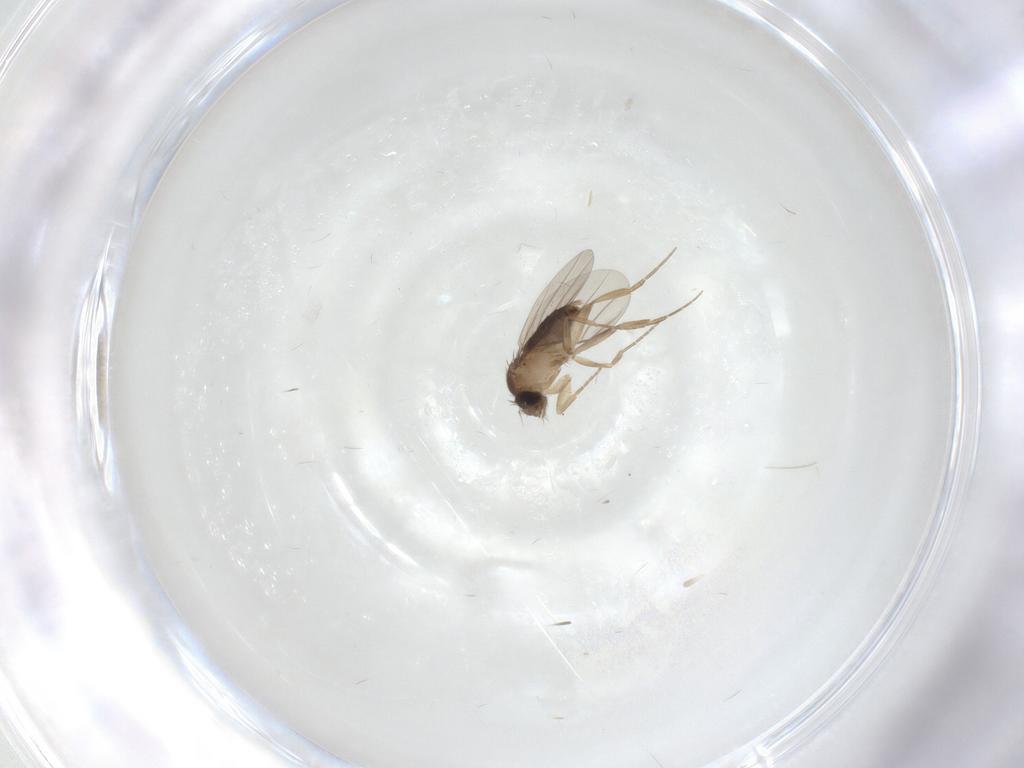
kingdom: Animalia
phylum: Arthropoda
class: Insecta
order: Diptera
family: Phoridae
